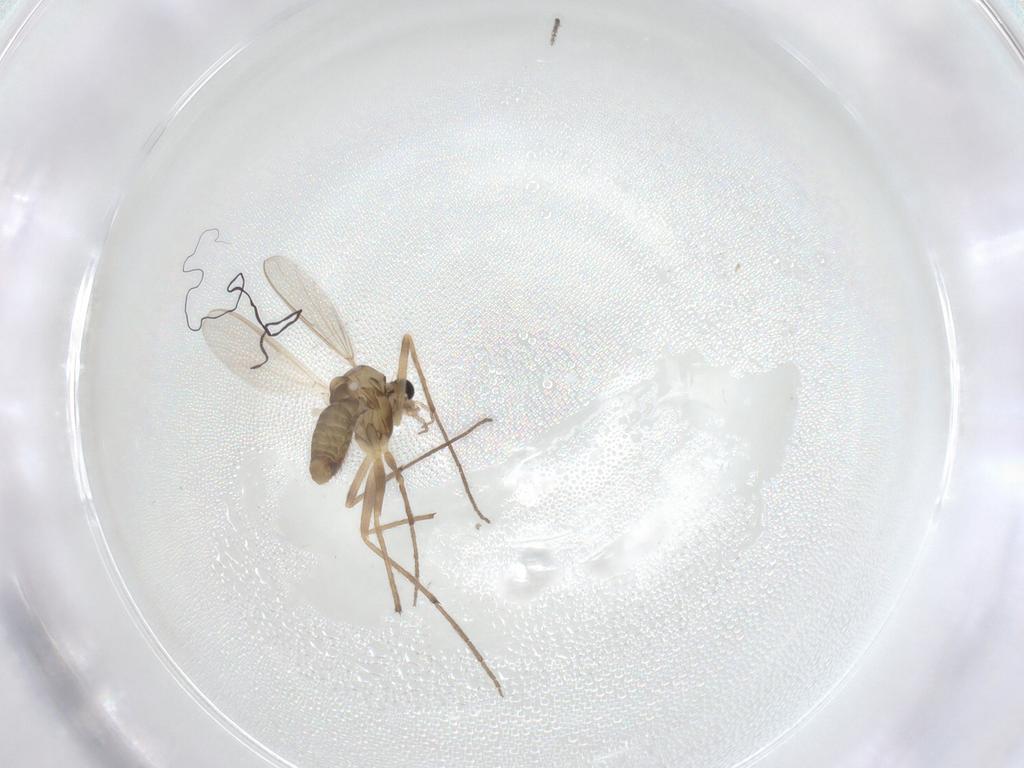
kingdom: Animalia
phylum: Arthropoda
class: Insecta
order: Diptera
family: Chironomidae
